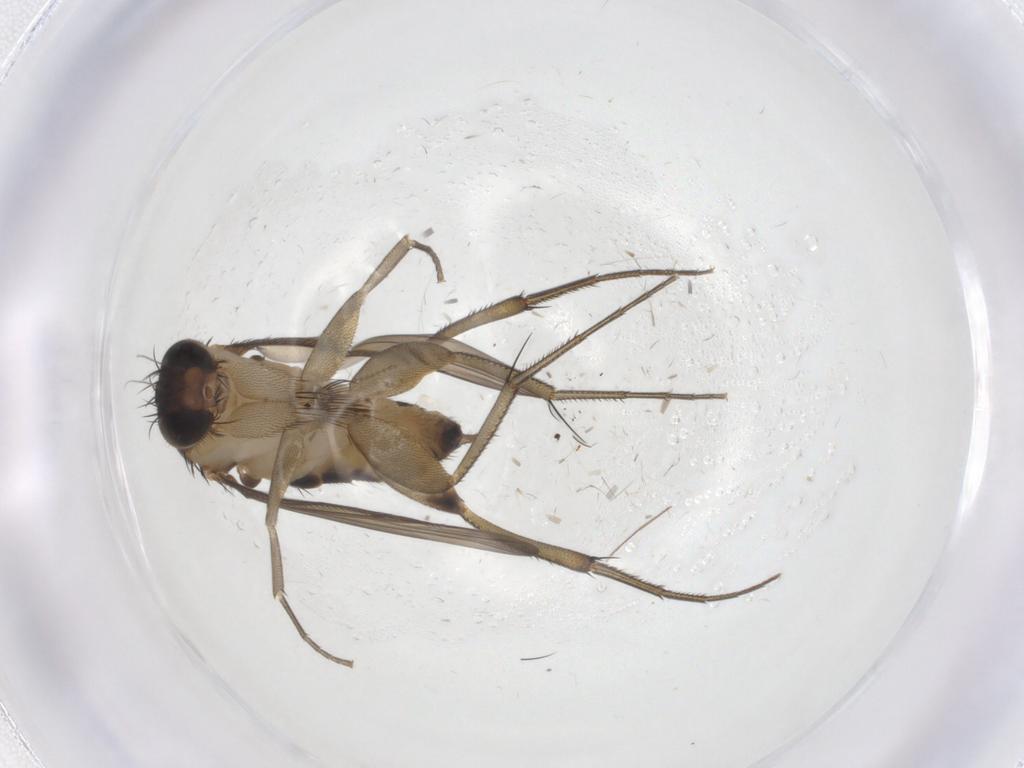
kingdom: Animalia
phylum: Arthropoda
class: Insecta
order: Diptera
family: Phoridae
